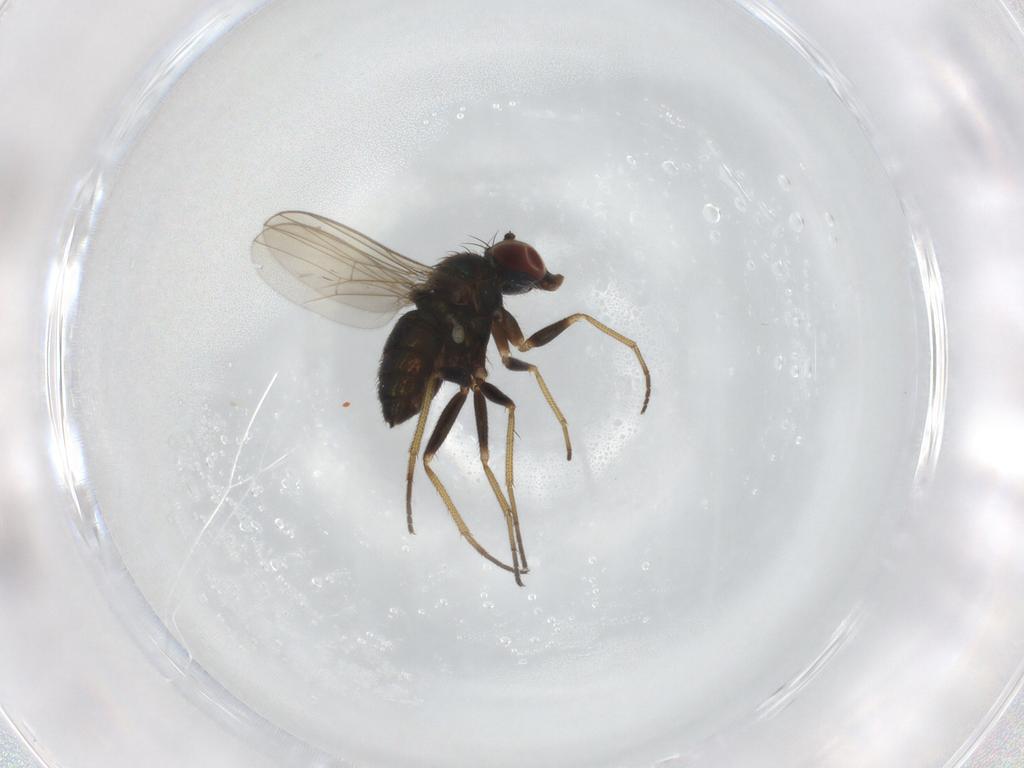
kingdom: Animalia
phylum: Arthropoda
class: Insecta
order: Diptera
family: Dolichopodidae
